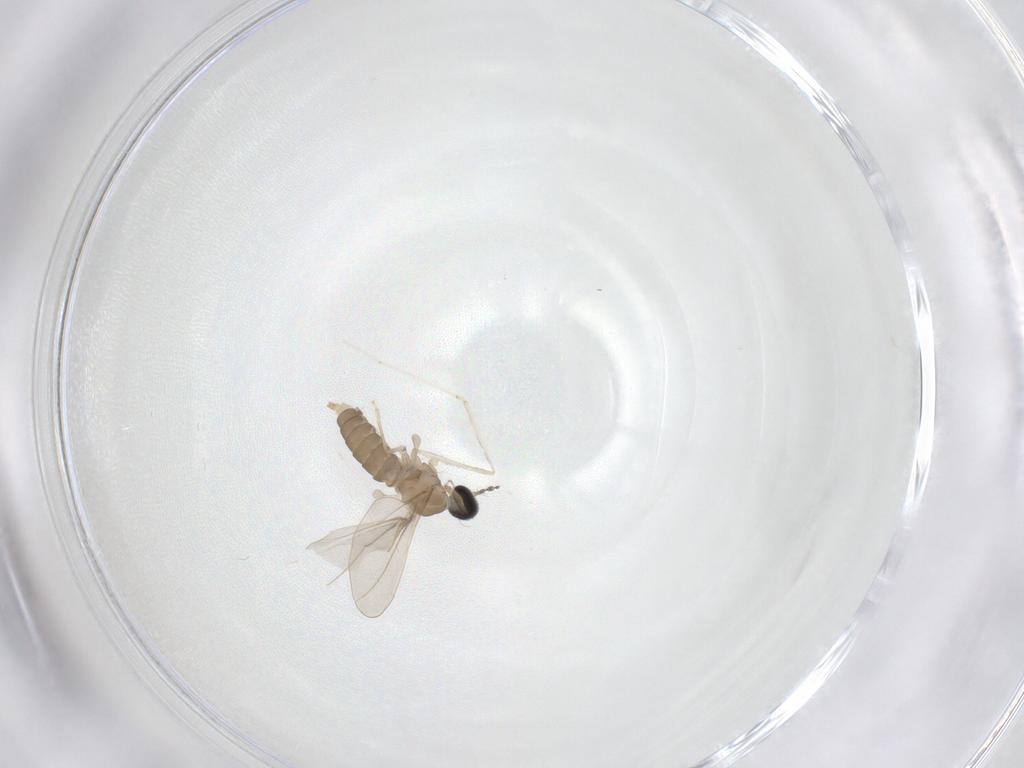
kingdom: Animalia
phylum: Arthropoda
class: Insecta
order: Diptera
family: Cecidomyiidae
